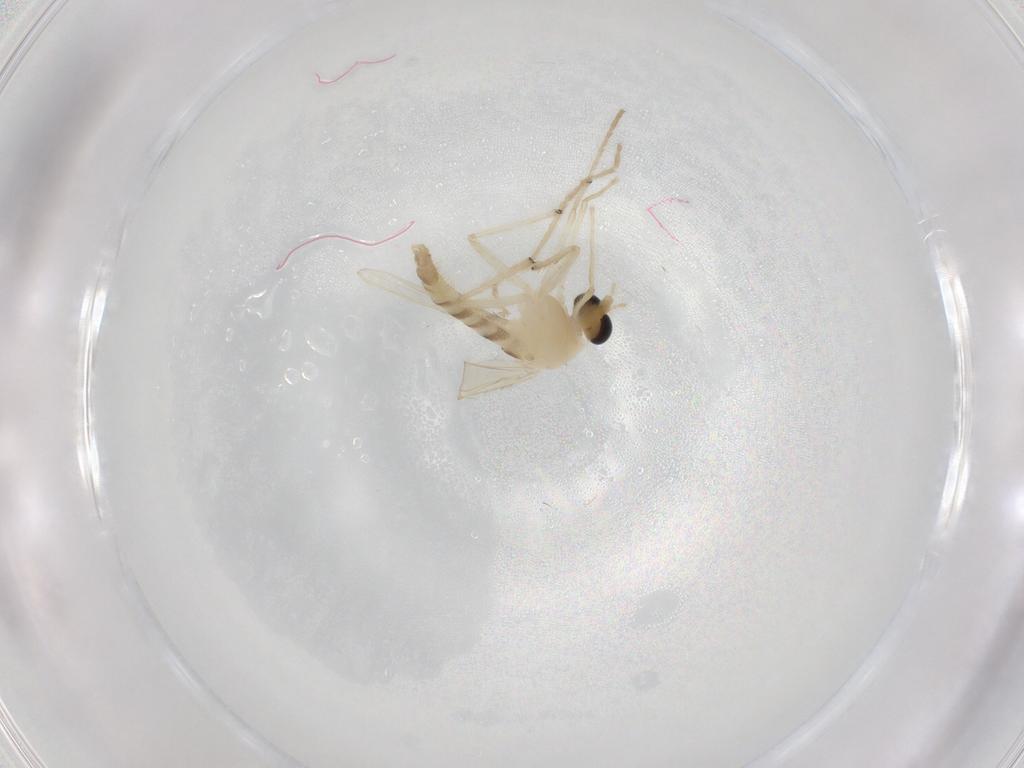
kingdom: Animalia
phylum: Arthropoda
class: Insecta
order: Diptera
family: Chironomidae
